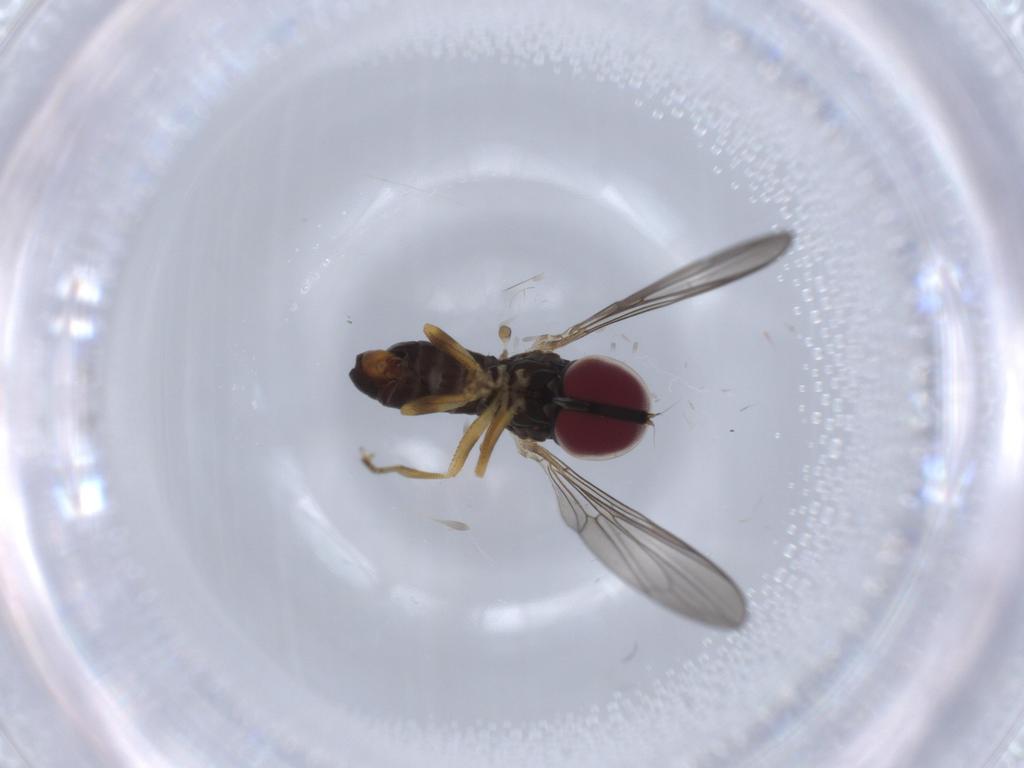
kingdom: Animalia
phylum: Arthropoda
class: Insecta
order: Diptera
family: Pipunculidae
